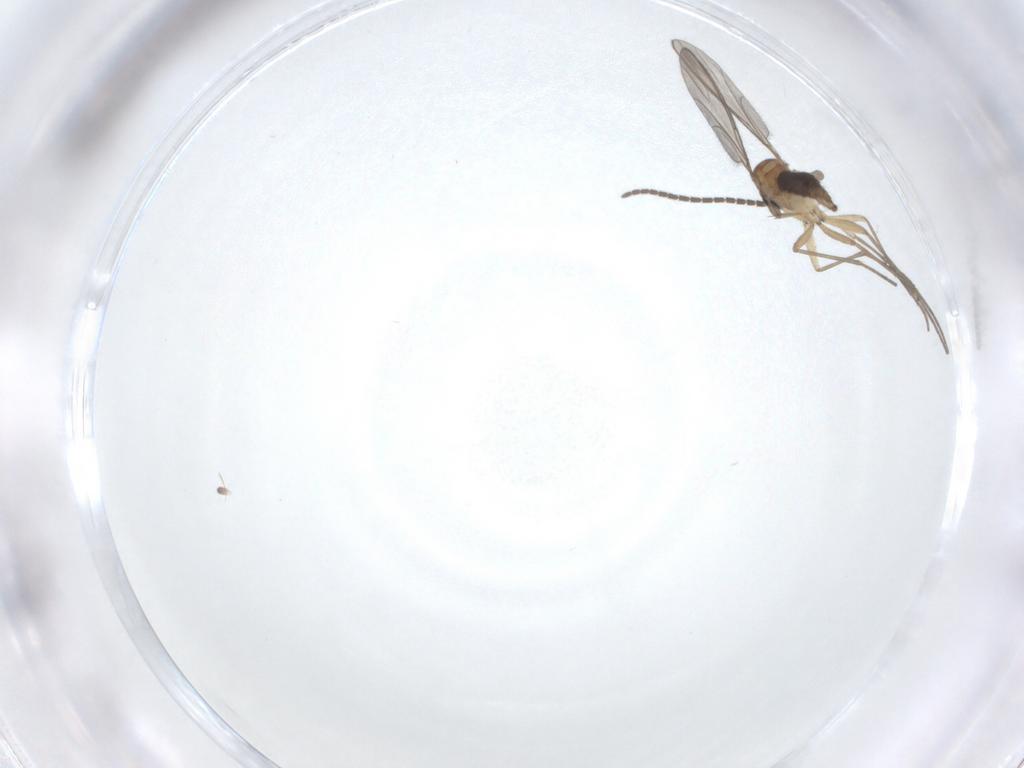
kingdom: Animalia
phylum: Arthropoda
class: Insecta
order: Diptera
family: Sciaridae
